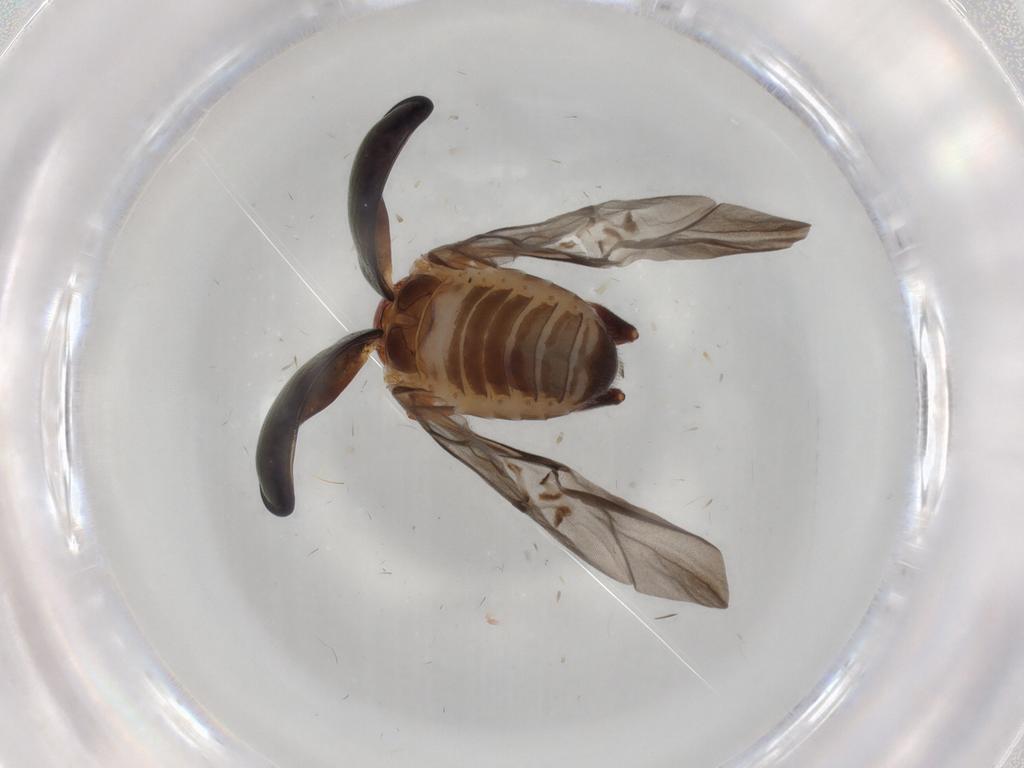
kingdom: Animalia
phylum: Arthropoda
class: Insecta
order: Coleoptera
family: Chrysomelidae
